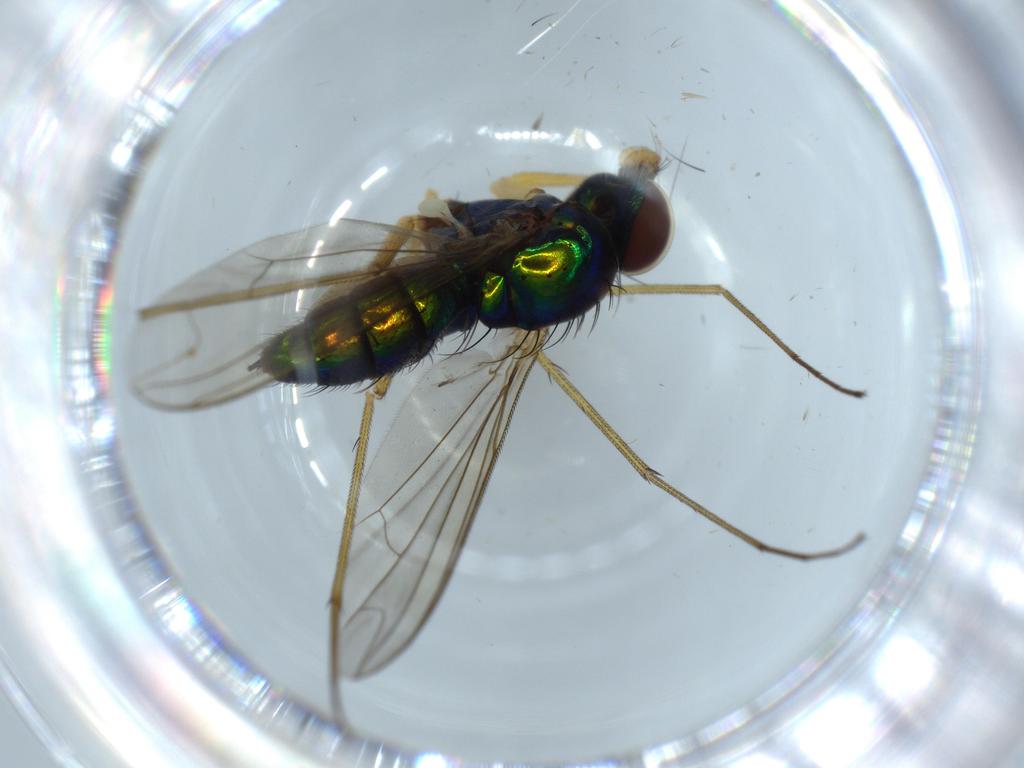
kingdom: Animalia
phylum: Arthropoda
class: Insecta
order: Diptera
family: Dolichopodidae
